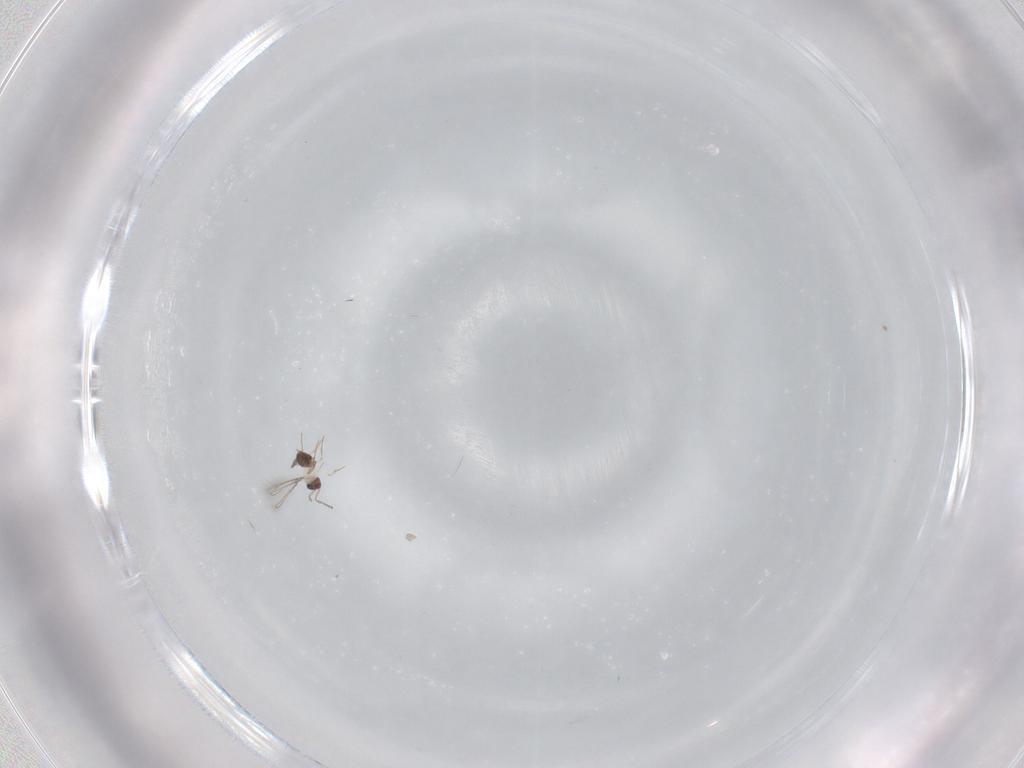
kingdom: Animalia
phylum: Arthropoda
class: Insecta
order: Hymenoptera
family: Mymaridae
